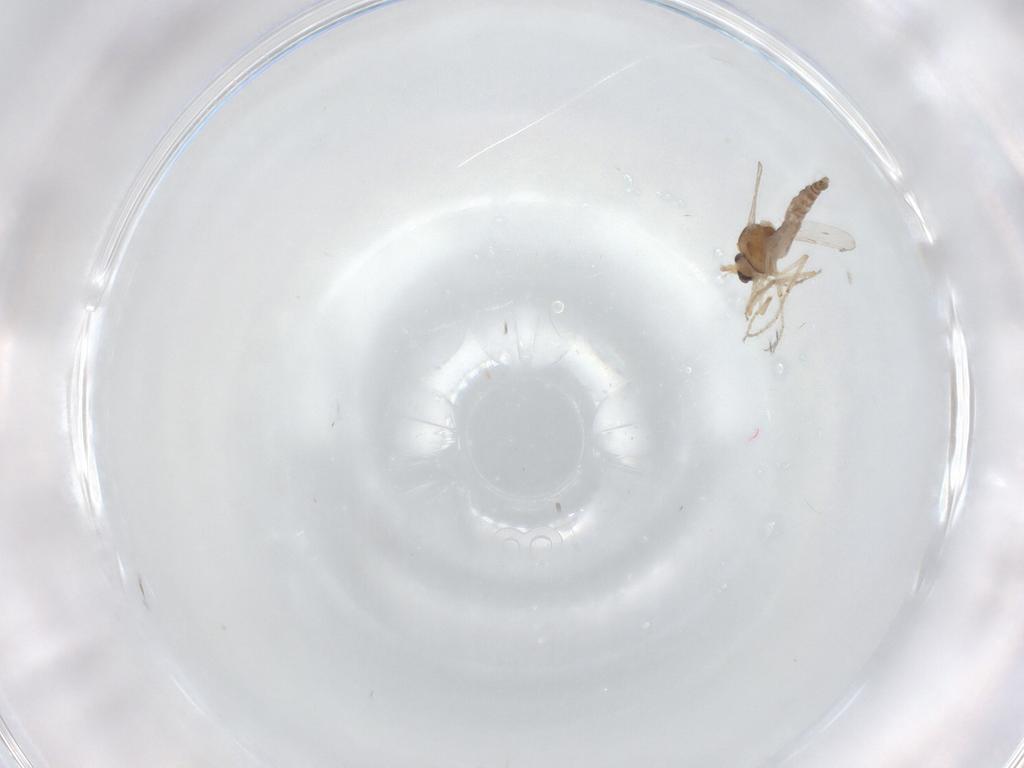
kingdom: Animalia
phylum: Arthropoda
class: Insecta
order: Diptera
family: Ceratopogonidae
